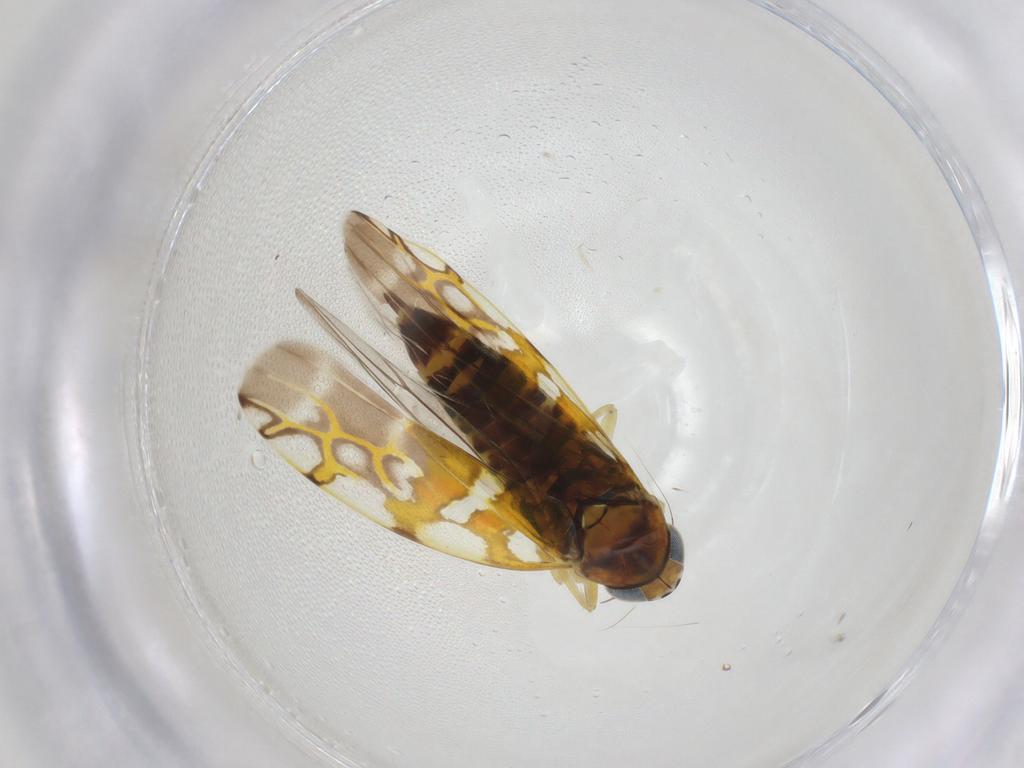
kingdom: Animalia
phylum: Arthropoda
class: Insecta
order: Hemiptera
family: Cicadellidae
